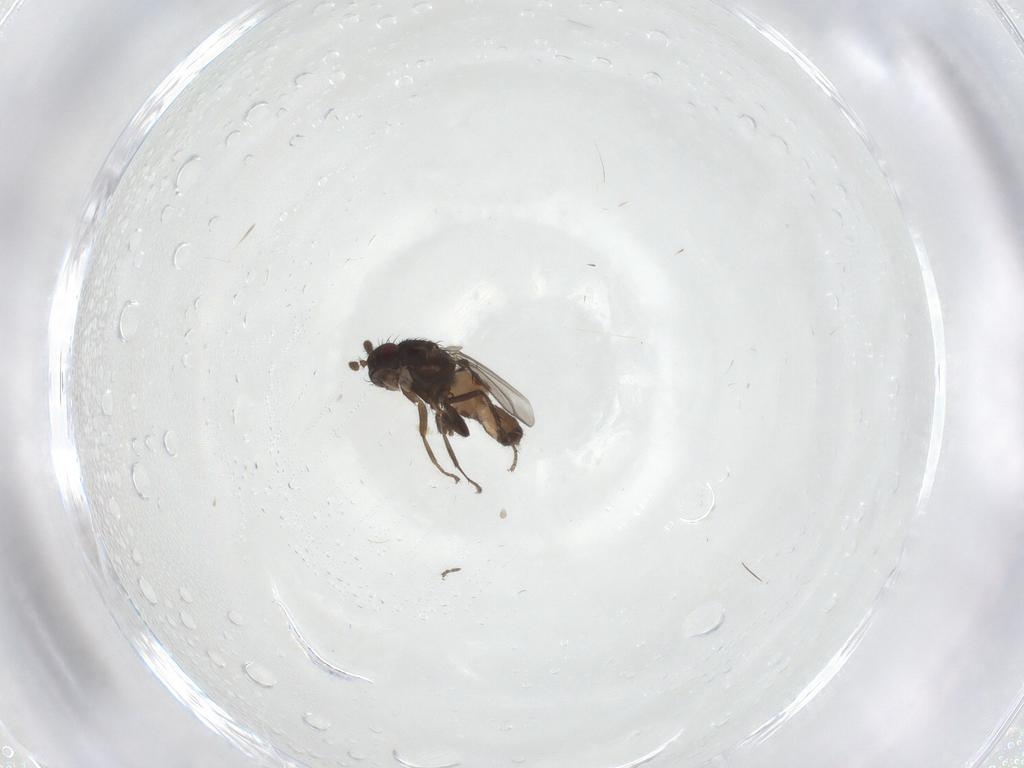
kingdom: Animalia
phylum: Arthropoda
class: Insecta
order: Diptera
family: Sphaeroceridae
